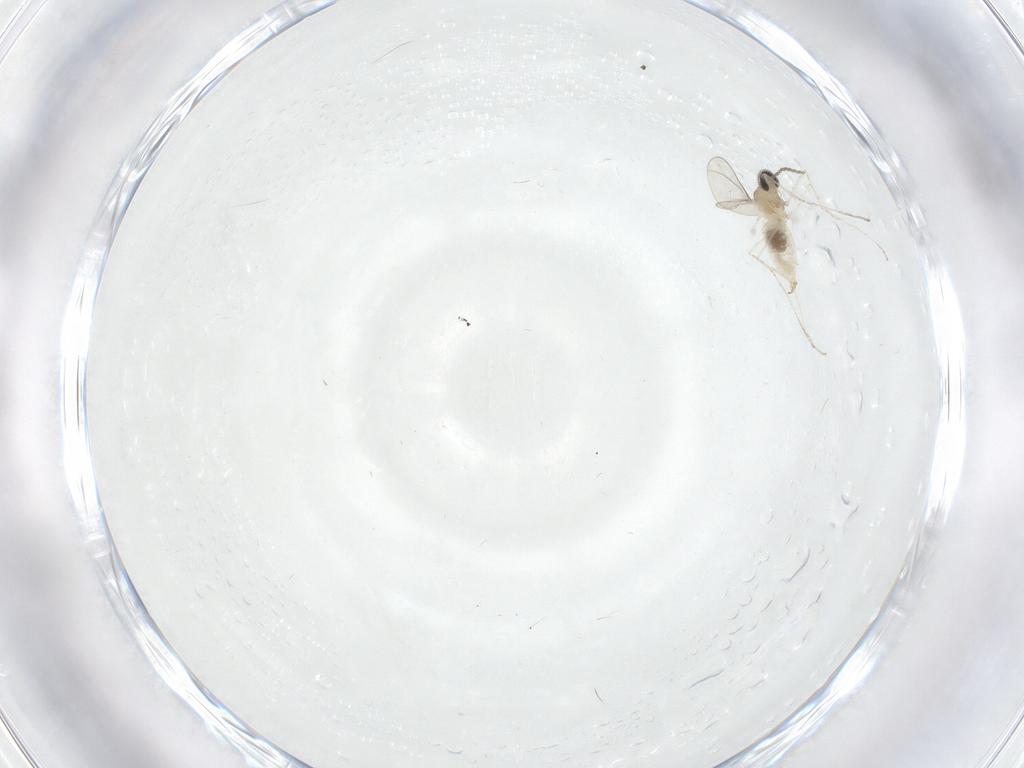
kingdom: Animalia
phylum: Arthropoda
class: Insecta
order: Diptera
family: Cecidomyiidae
